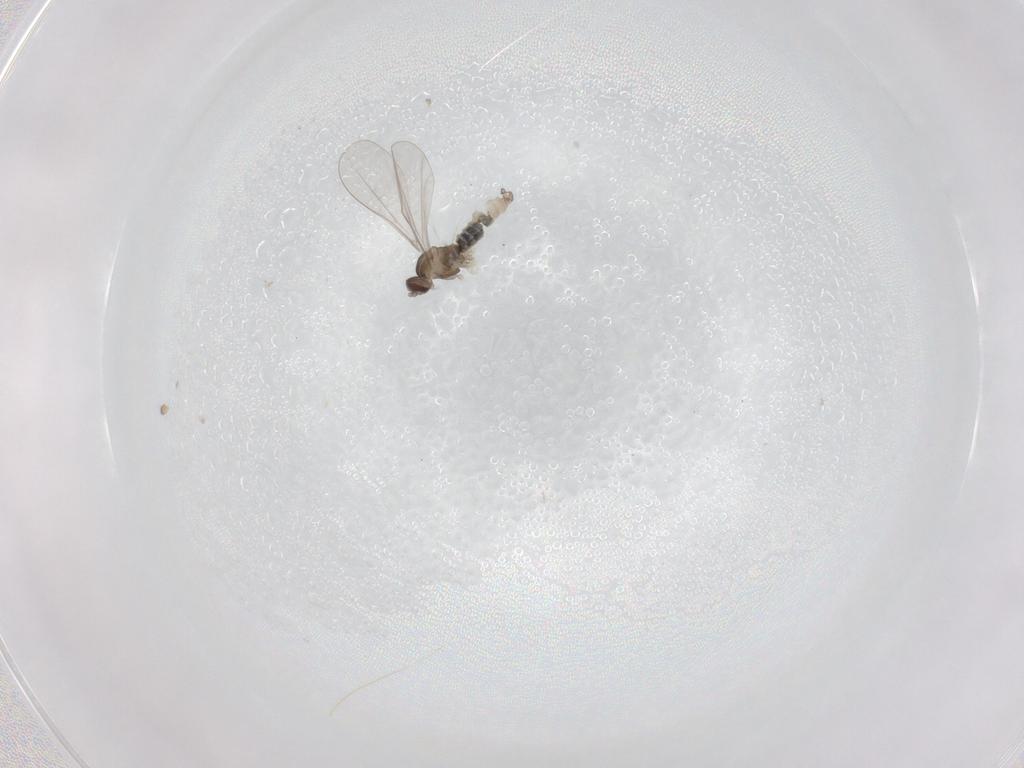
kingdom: Animalia
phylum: Arthropoda
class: Insecta
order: Diptera
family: Cecidomyiidae
